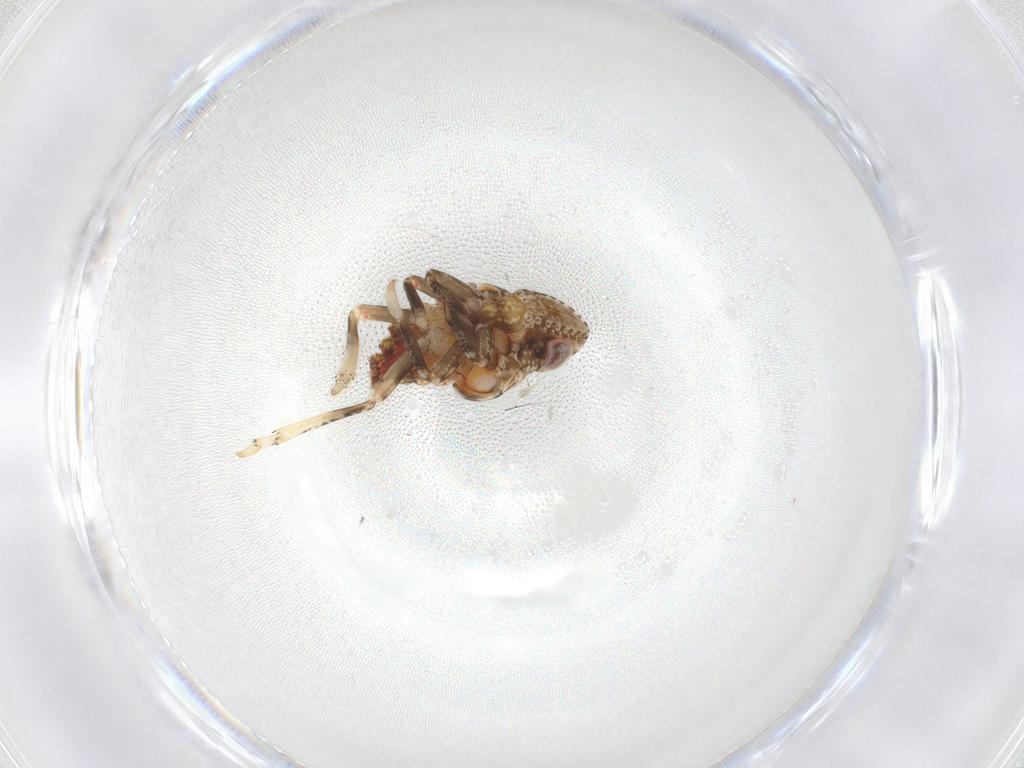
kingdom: Animalia
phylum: Arthropoda
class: Insecta
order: Hemiptera
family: Tropiduchidae
